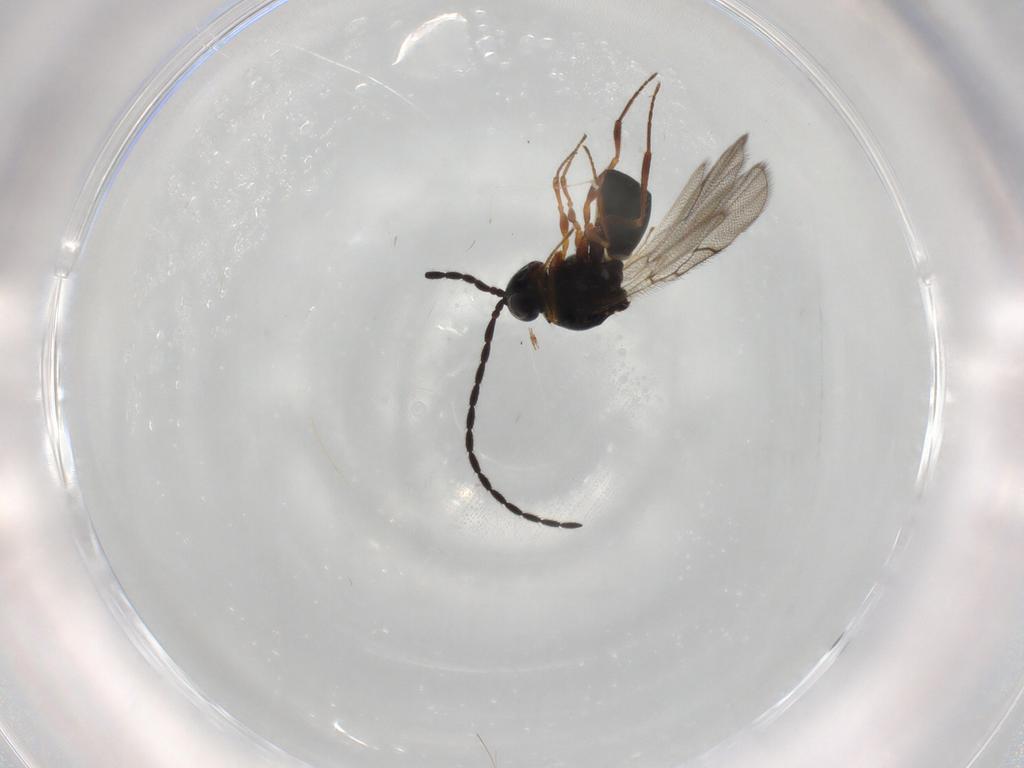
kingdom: Animalia
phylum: Arthropoda
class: Insecta
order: Hymenoptera
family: Figitidae
